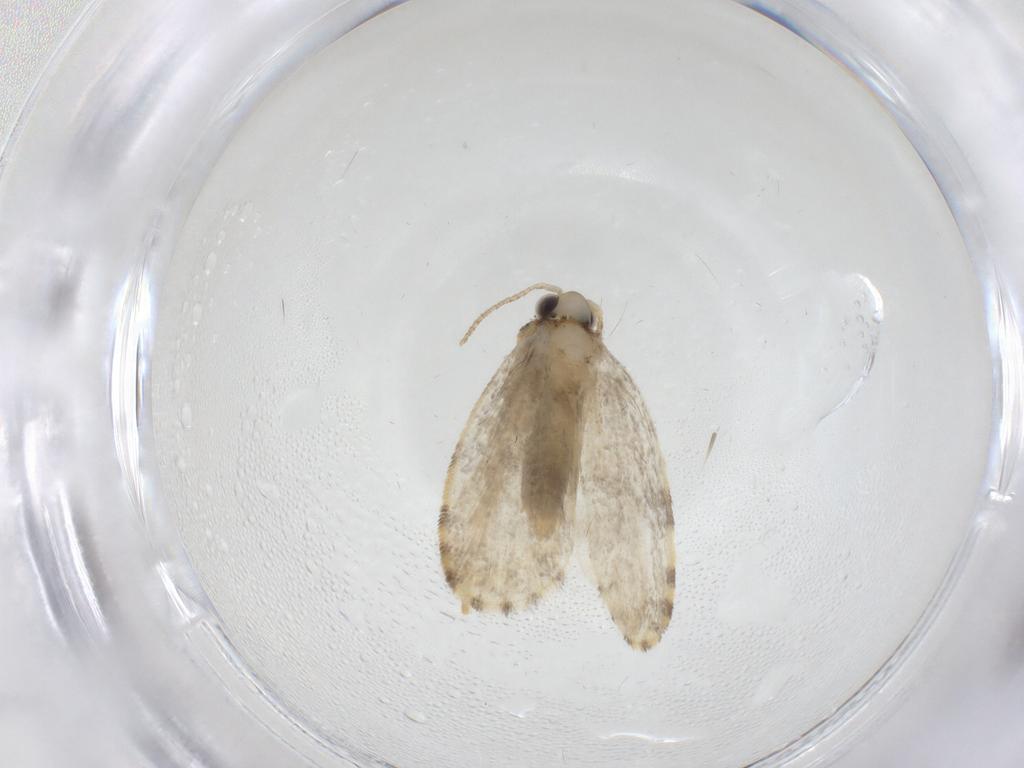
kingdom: Animalia
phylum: Arthropoda
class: Insecta
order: Lepidoptera
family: Psychidae
